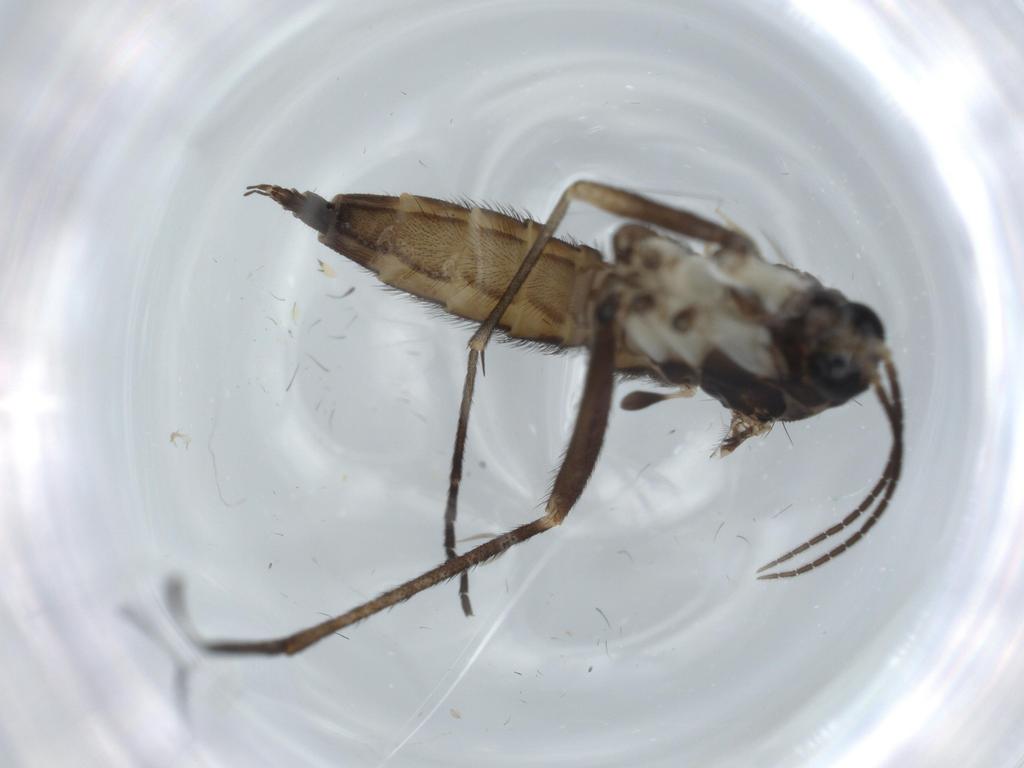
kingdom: Animalia
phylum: Arthropoda
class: Insecta
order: Diptera
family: Sciaridae
